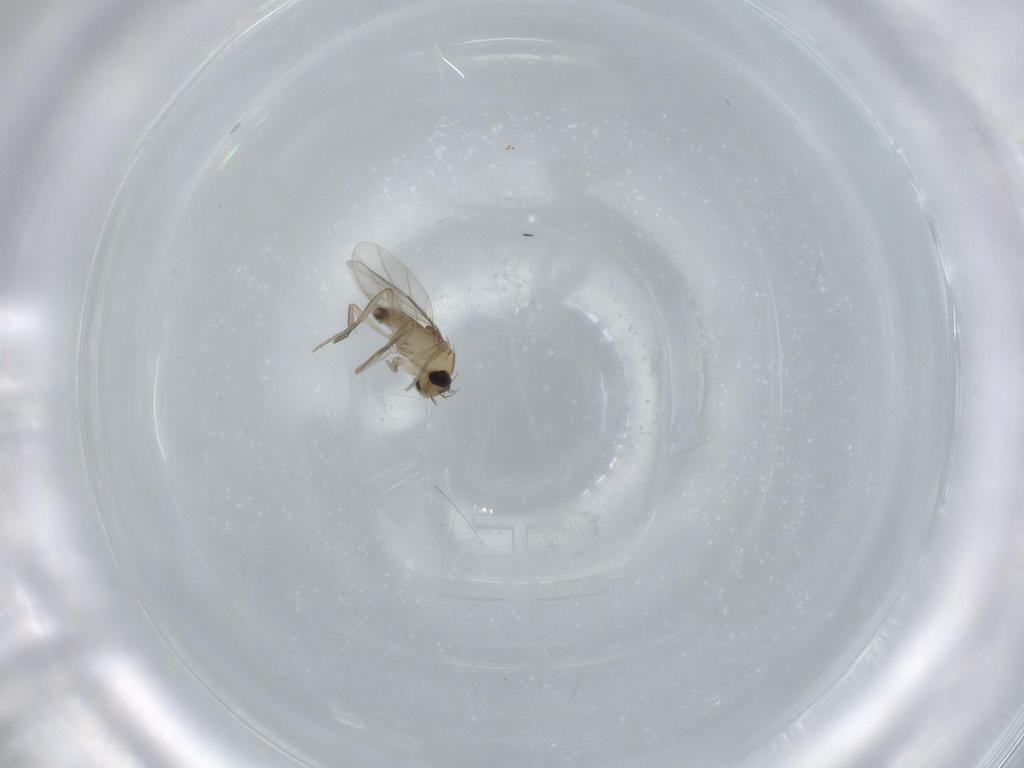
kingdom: Animalia
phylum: Arthropoda
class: Insecta
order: Diptera
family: Phoridae
